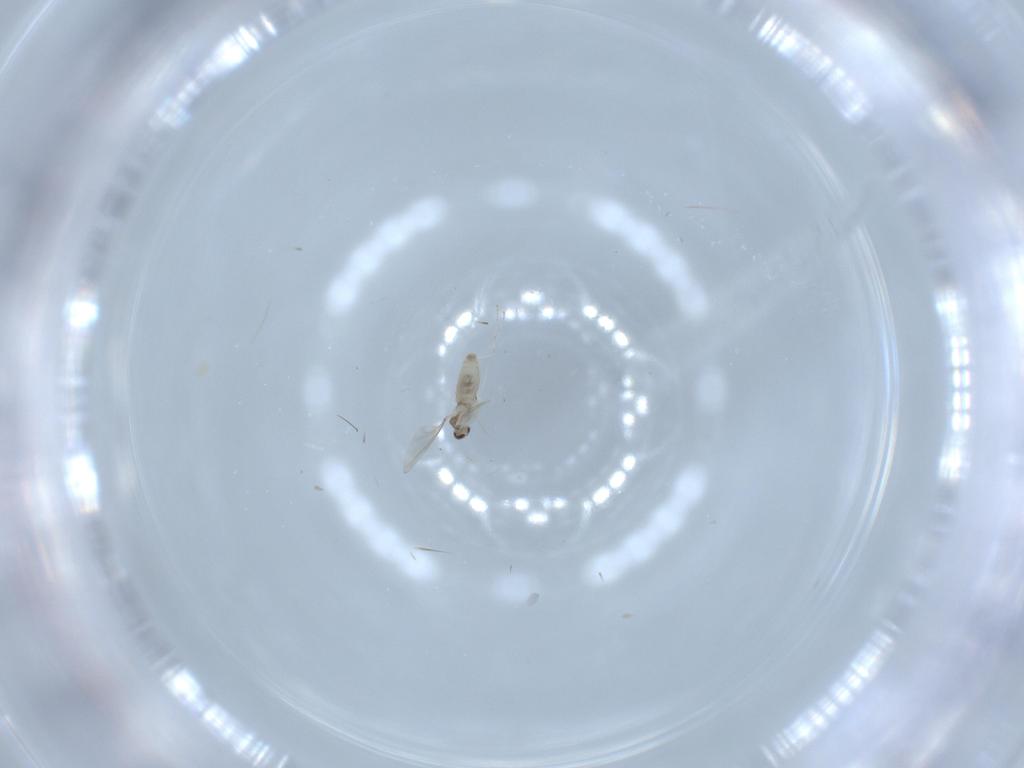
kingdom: Animalia
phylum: Arthropoda
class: Insecta
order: Diptera
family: Cecidomyiidae
